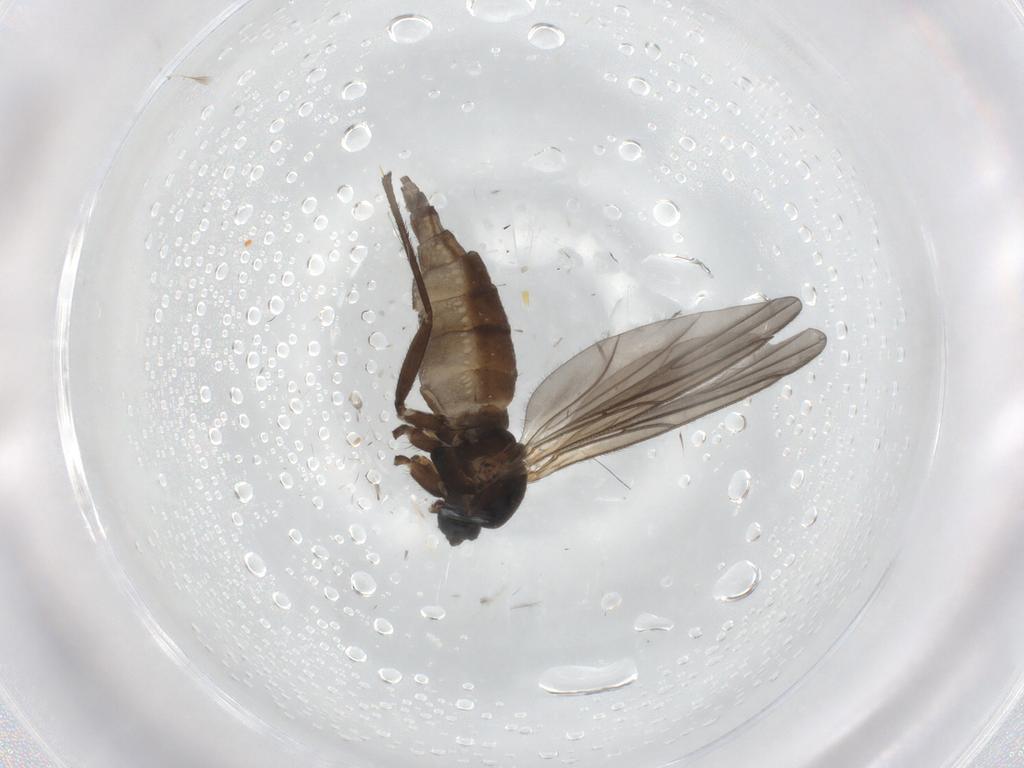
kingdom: Animalia
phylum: Arthropoda
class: Insecta
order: Diptera
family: Sciaridae
